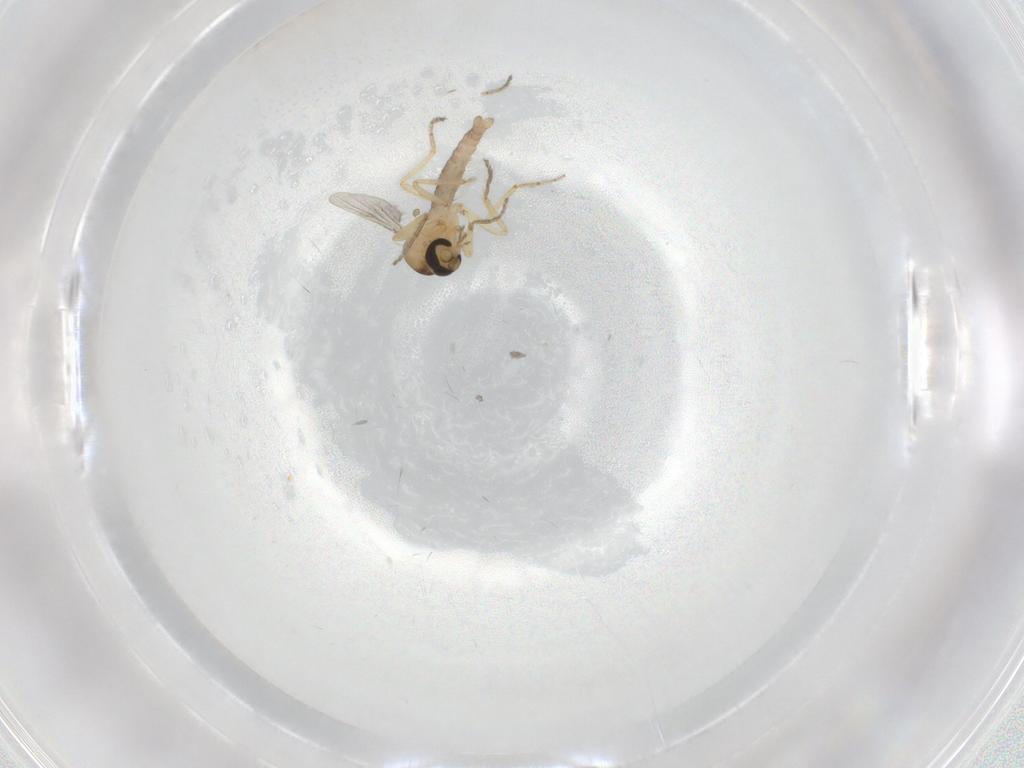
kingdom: Animalia
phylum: Arthropoda
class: Insecta
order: Diptera
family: Ceratopogonidae
